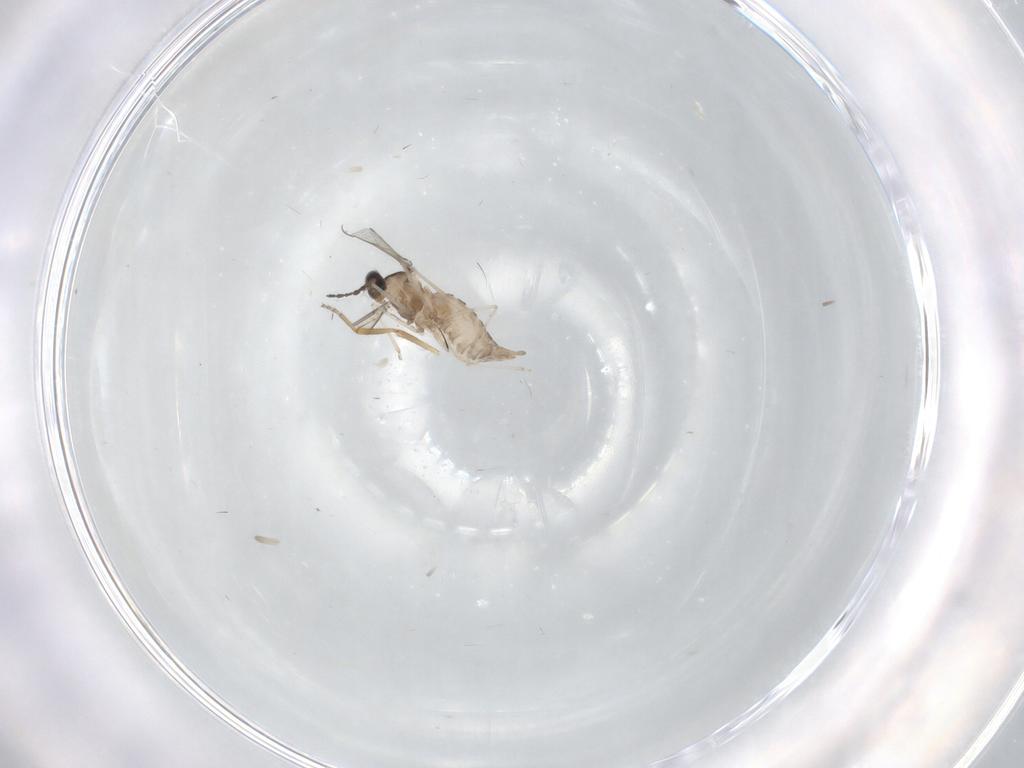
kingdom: Animalia
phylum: Arthropoda
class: Insecta
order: Diptera
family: Cecidomyiidae
